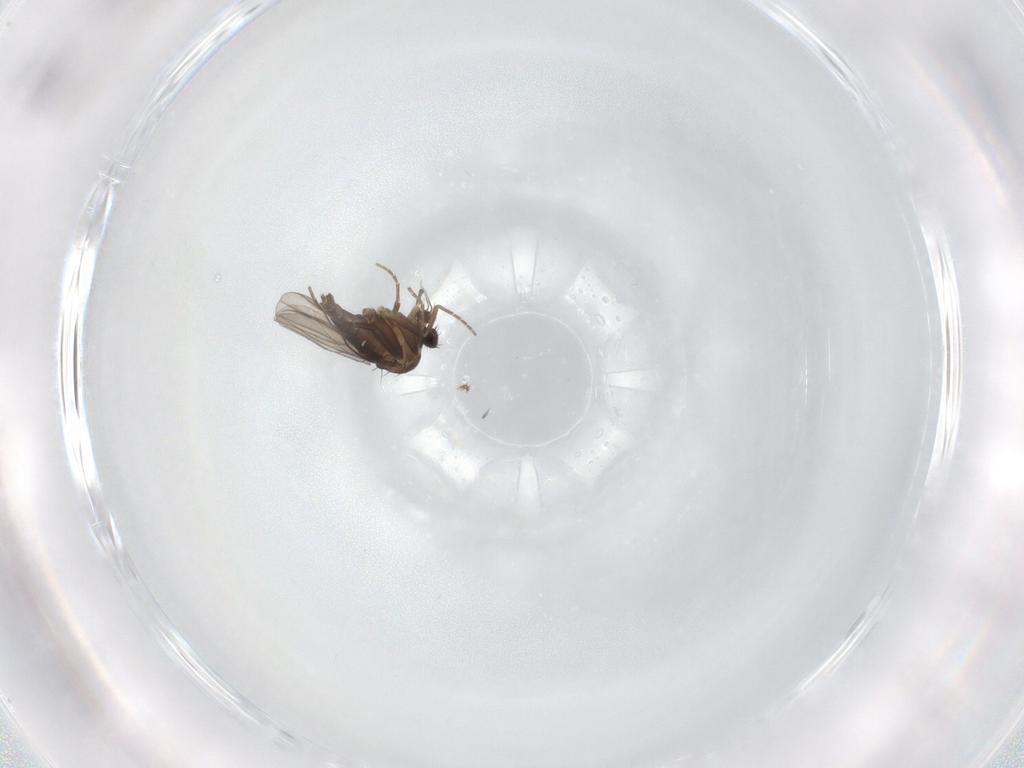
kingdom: Animalia
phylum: Arthropoda
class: Insecta
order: Diptera
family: Phoridae
